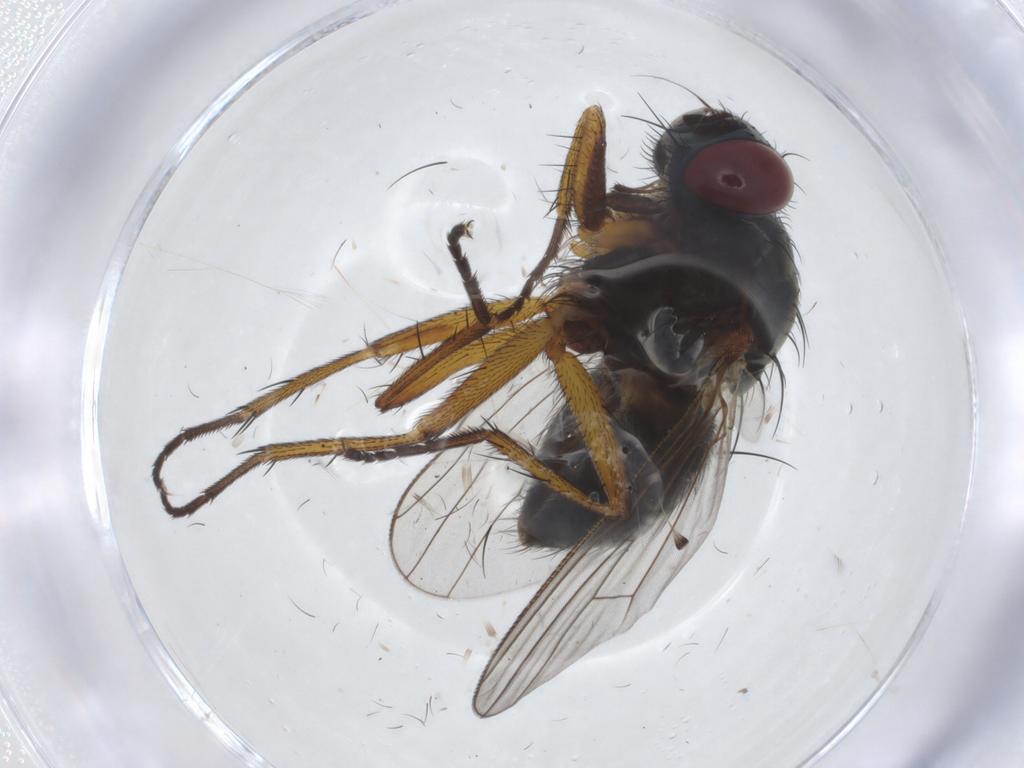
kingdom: Animalia
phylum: Arthropoda
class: Insecta
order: Diptera
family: Muscidae
